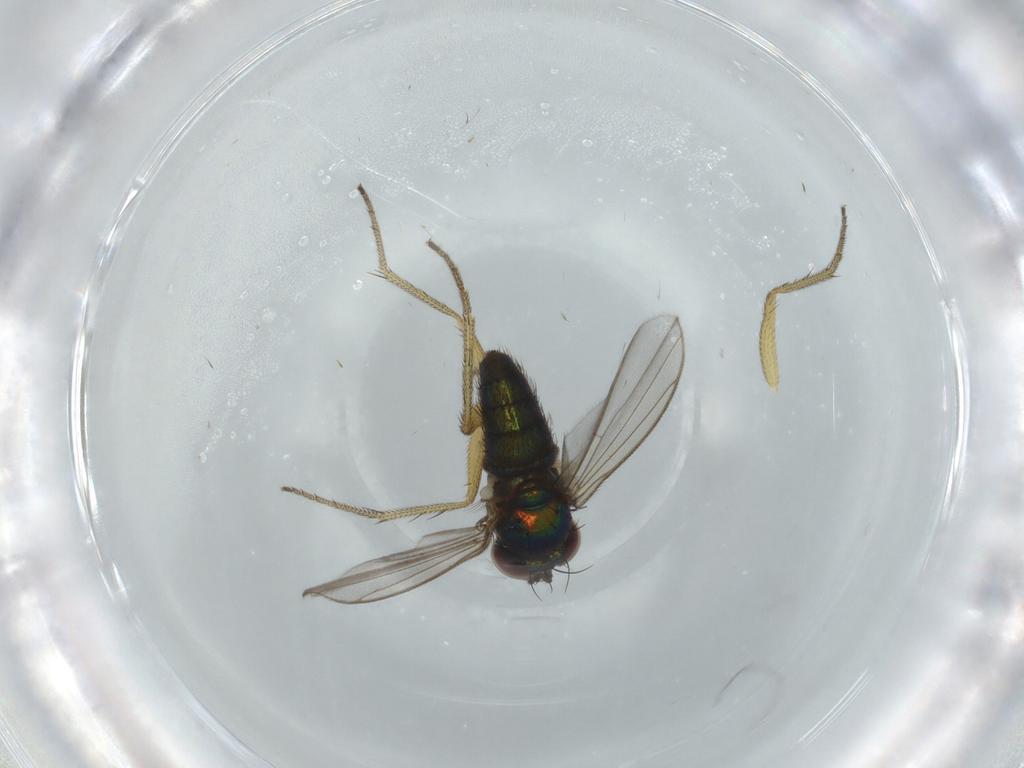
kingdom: Animalia
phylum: Arthropoda
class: Insecta
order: Diptera
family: Dolichopodidae
